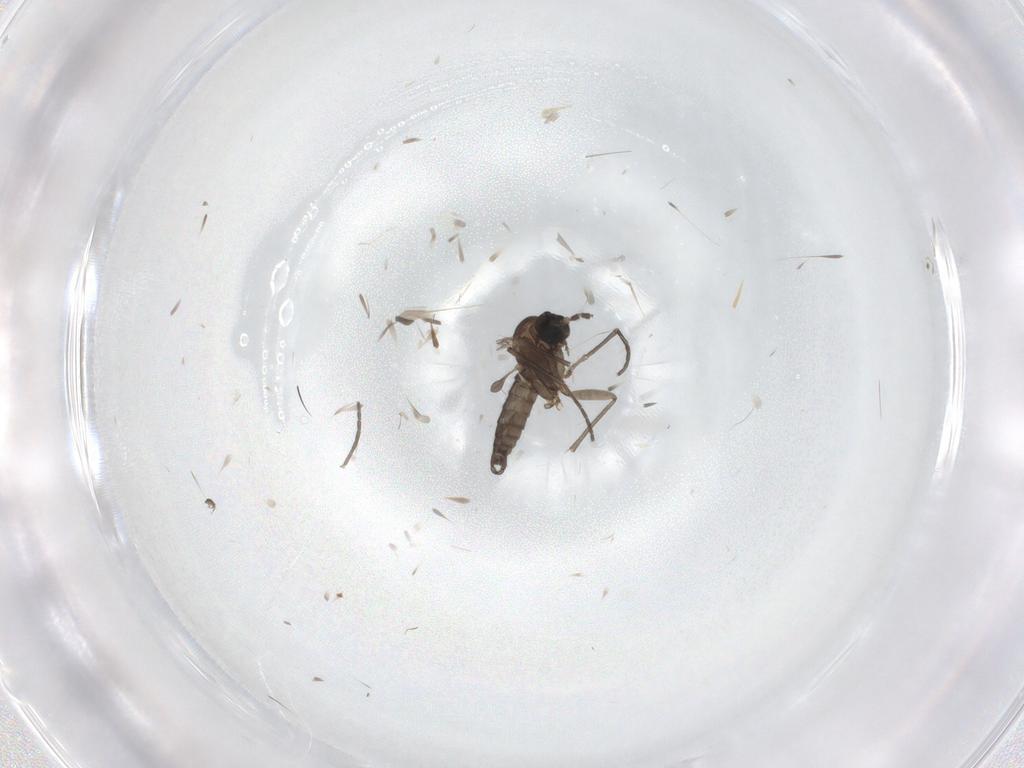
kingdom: Animalia
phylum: Arthropoda
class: Insecta
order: Diptera
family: Sciaridae
